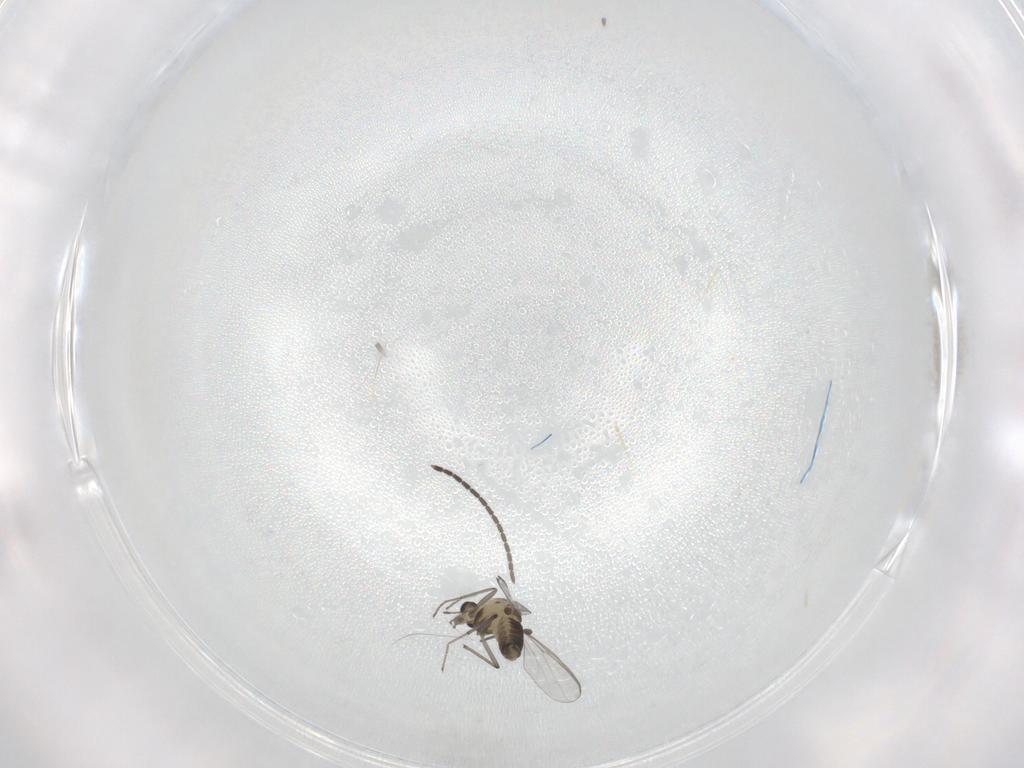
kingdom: Animalia
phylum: Arthropoda
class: Insecta
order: Diptera
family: Chironomidae
